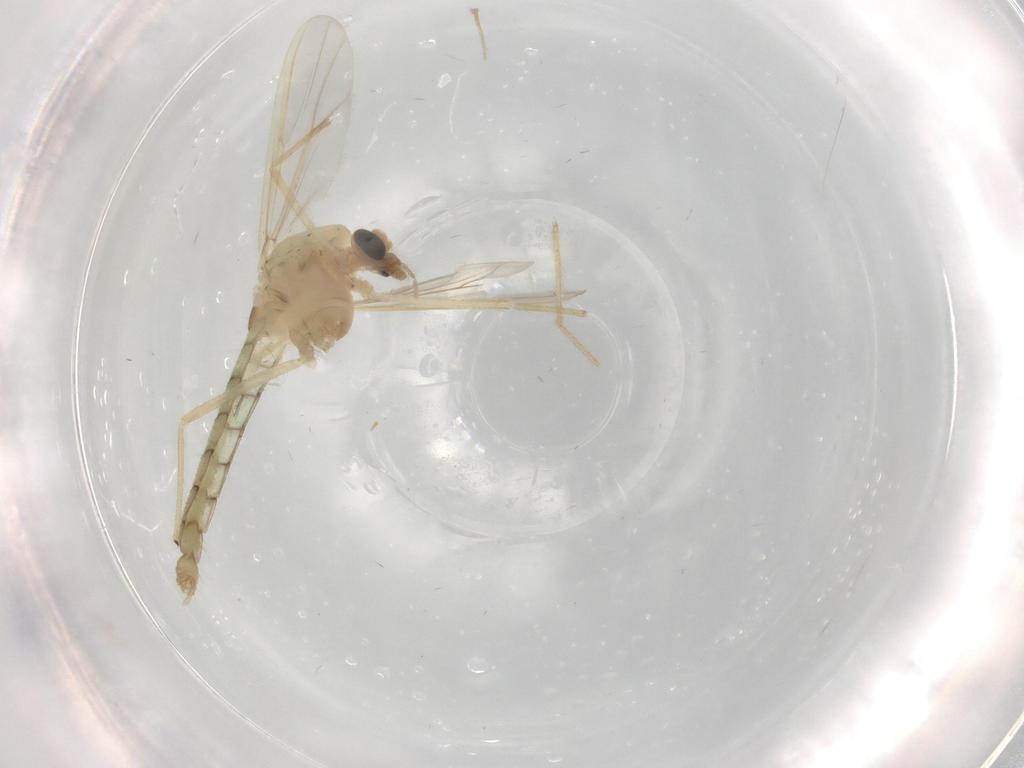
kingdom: Animalia
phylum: Arthropoda
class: Insecta
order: Diptera
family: Chironomidae
